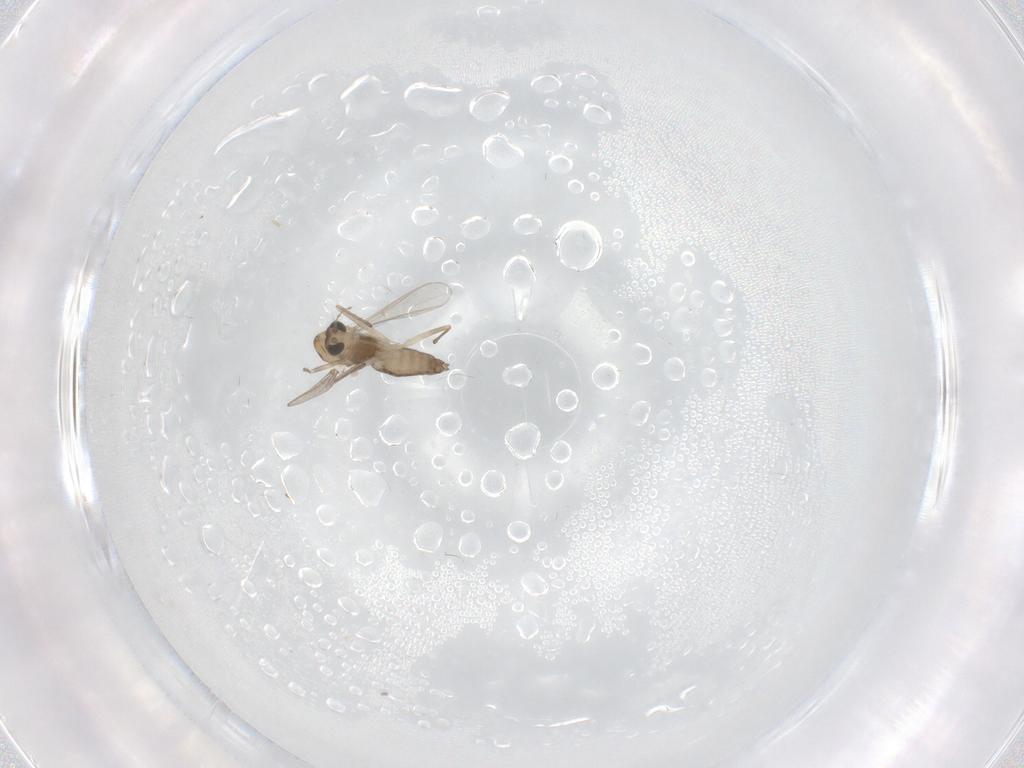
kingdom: Animalia
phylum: Arthropoda
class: Insecta
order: Diptera
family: Chironomidae
